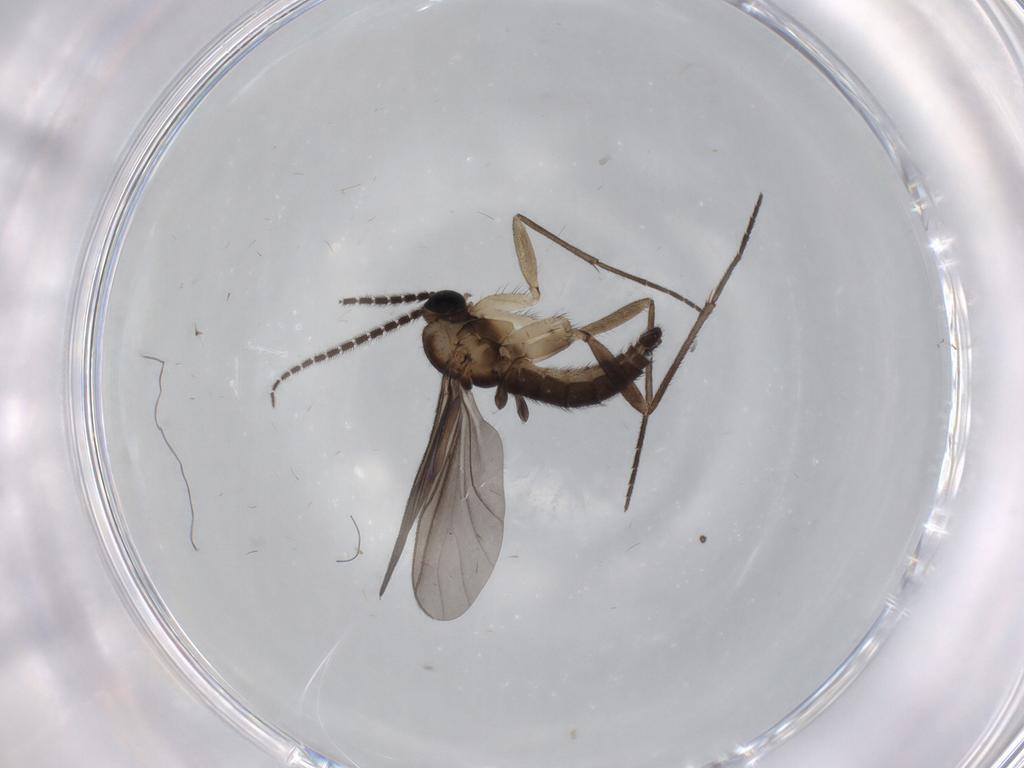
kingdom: Animalia
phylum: Arthropoda
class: Insecta
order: Diptera
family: Sciaridae
